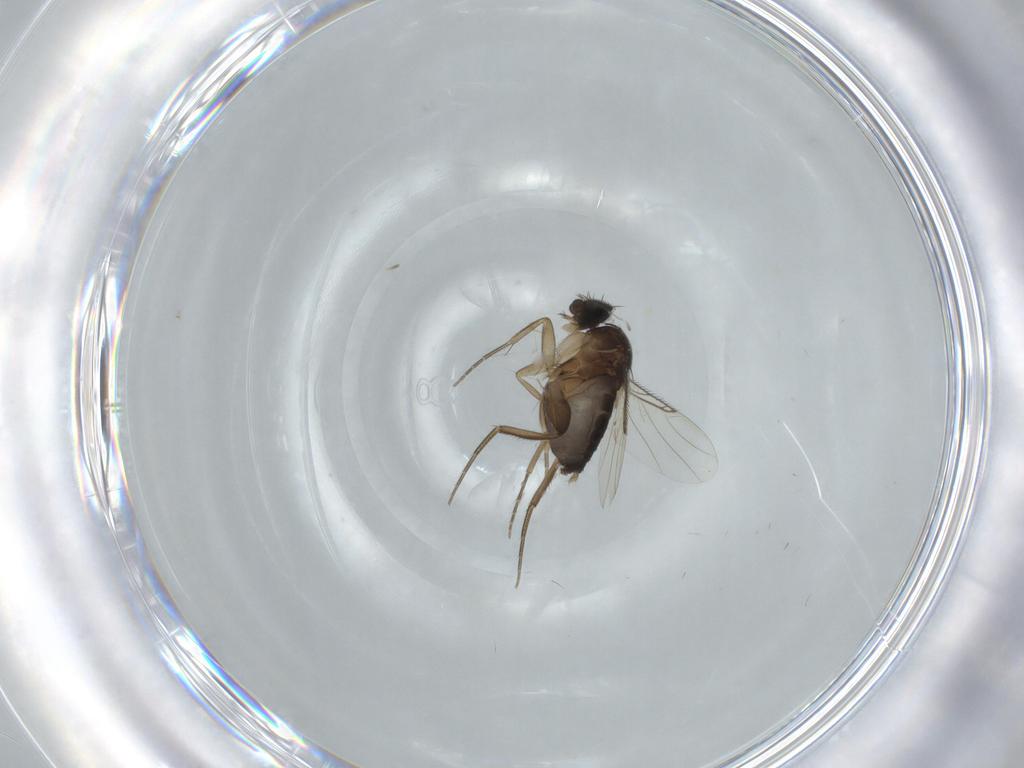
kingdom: Animalia
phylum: Arthropoda
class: Insecta
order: Diptera
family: Phoridae
